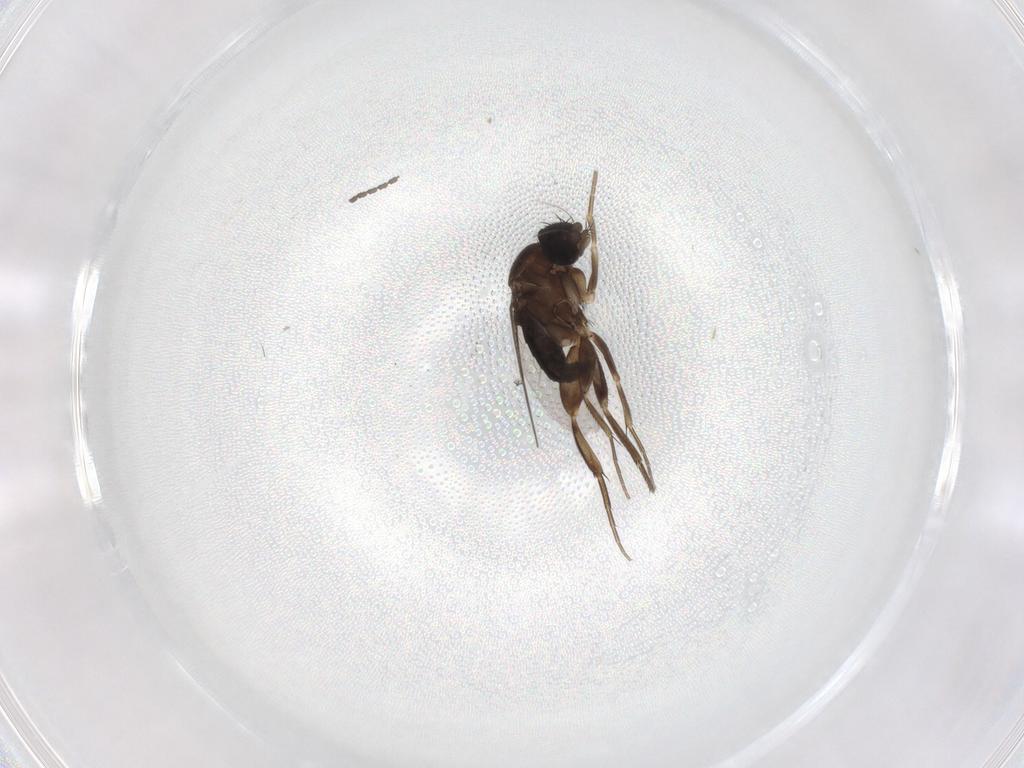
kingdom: Animalia
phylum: Arthropoda
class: Insecta
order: Diptera
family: Phoridae
